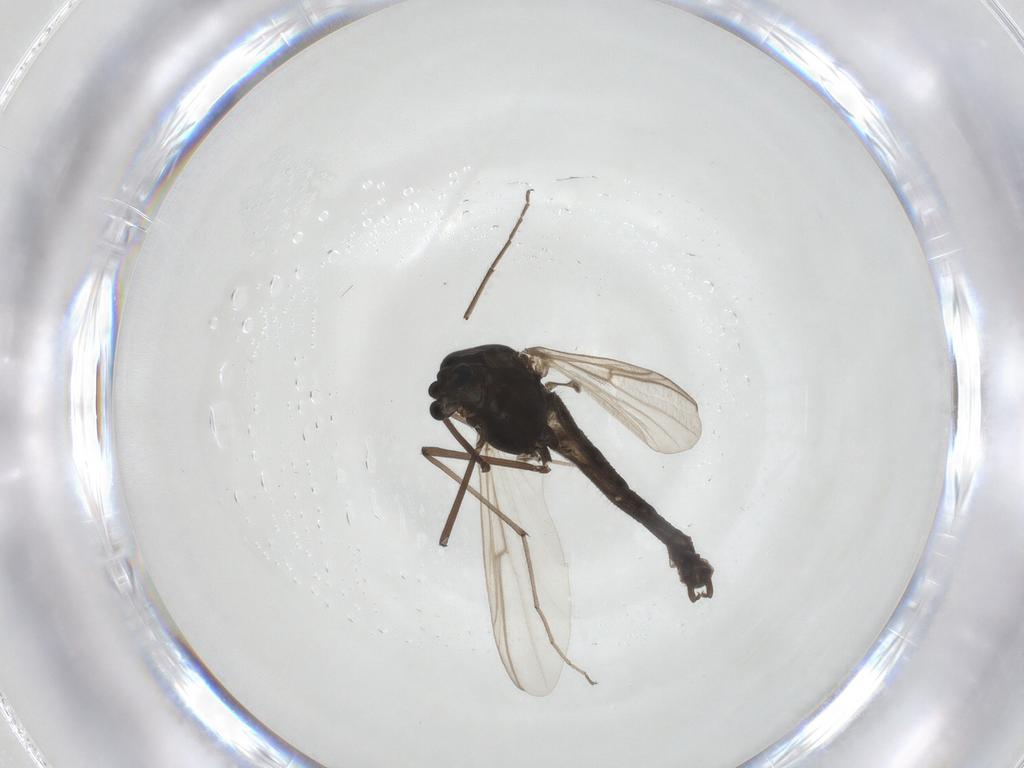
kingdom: Animalia
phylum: Arthropoda
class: Insecta
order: Diptera
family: Chironomidae
